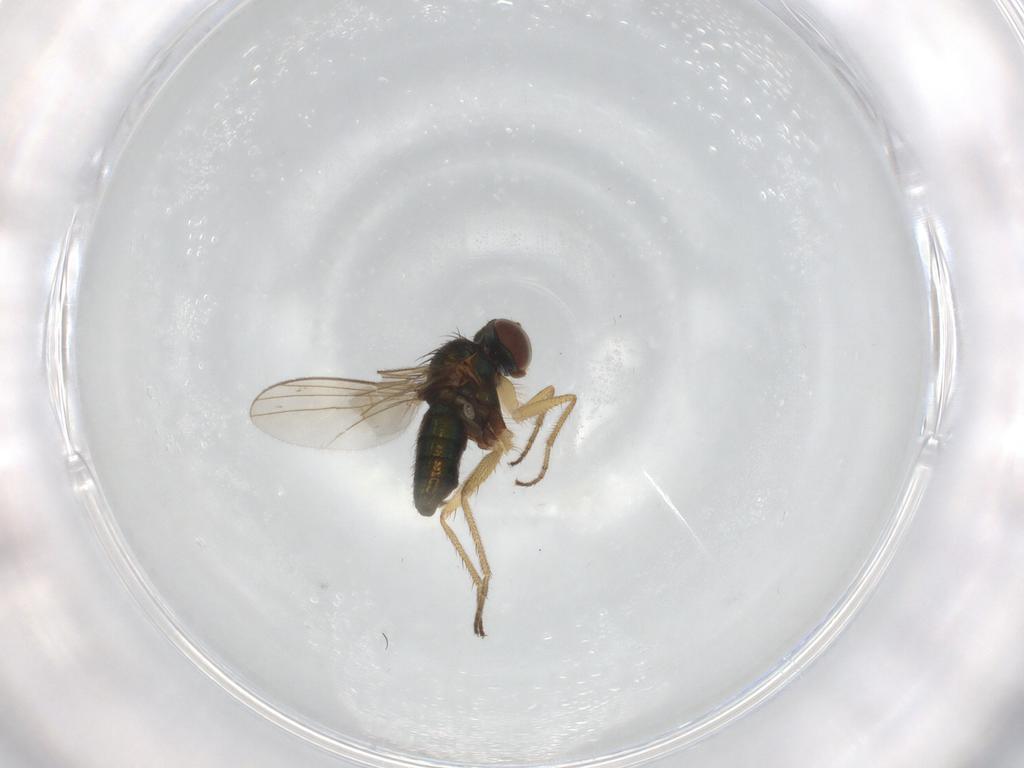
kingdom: Animalia
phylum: Arthropoda
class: Insecta
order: Diptera
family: Dolichopodidae
